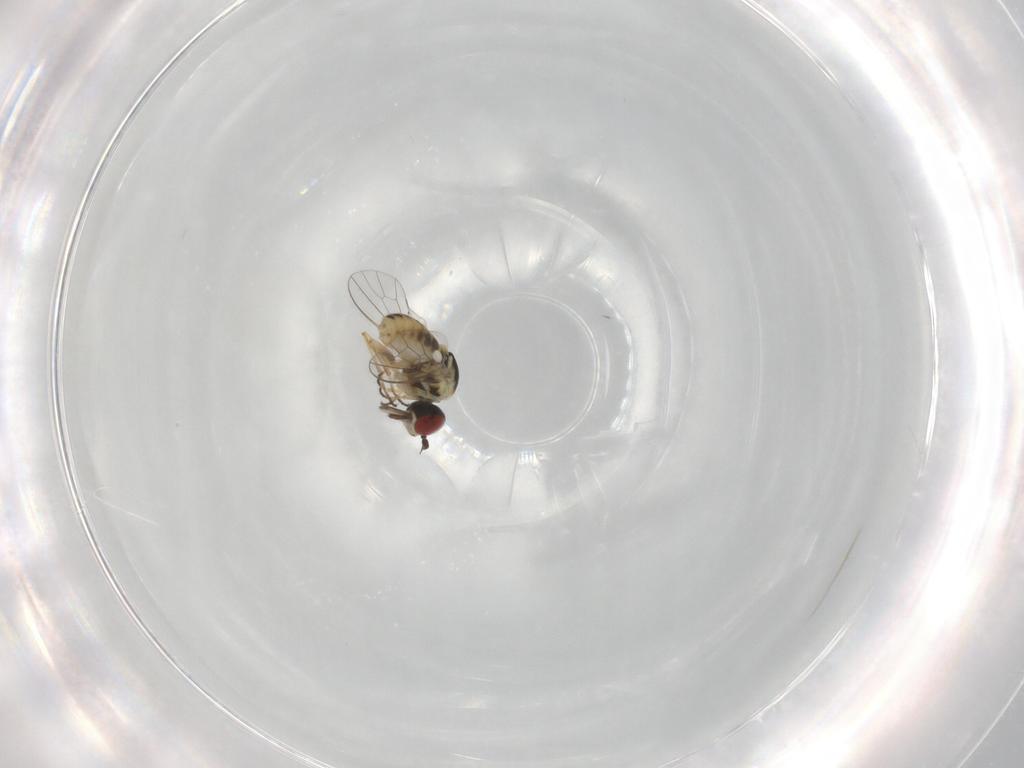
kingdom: Animalia
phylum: Arthropoda
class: Insecta
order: Diptera
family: Mythicomyiidae
